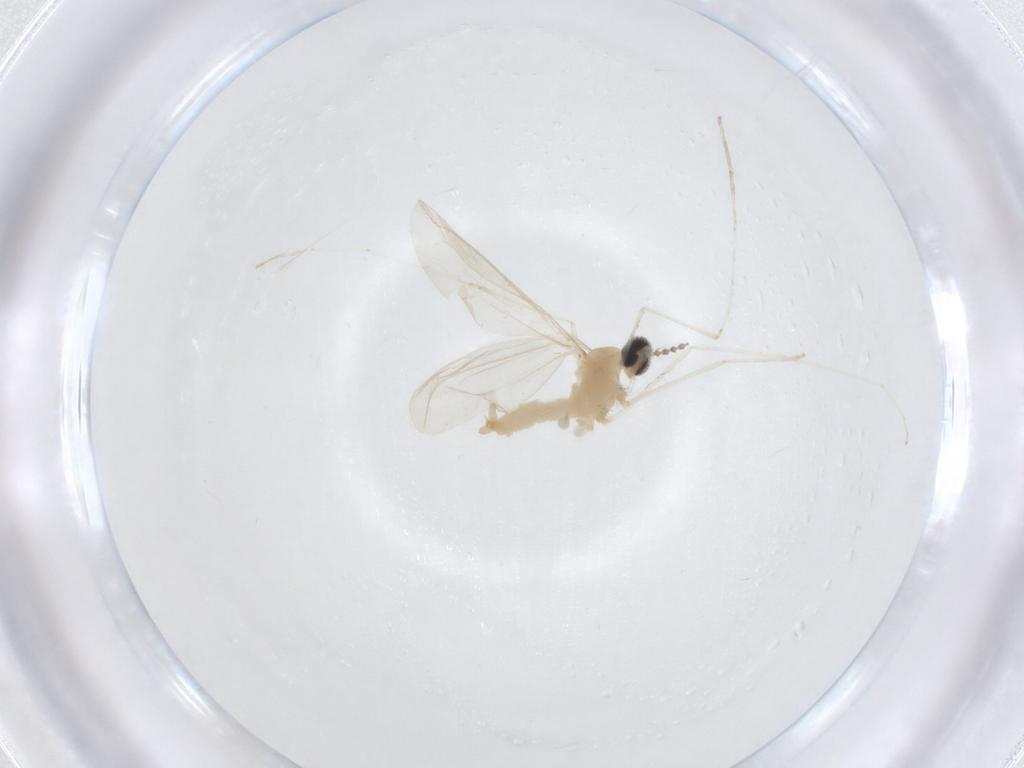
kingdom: Animalia
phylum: Arthropoda
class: Insecta
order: Diptera
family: Cecidomyiidae
